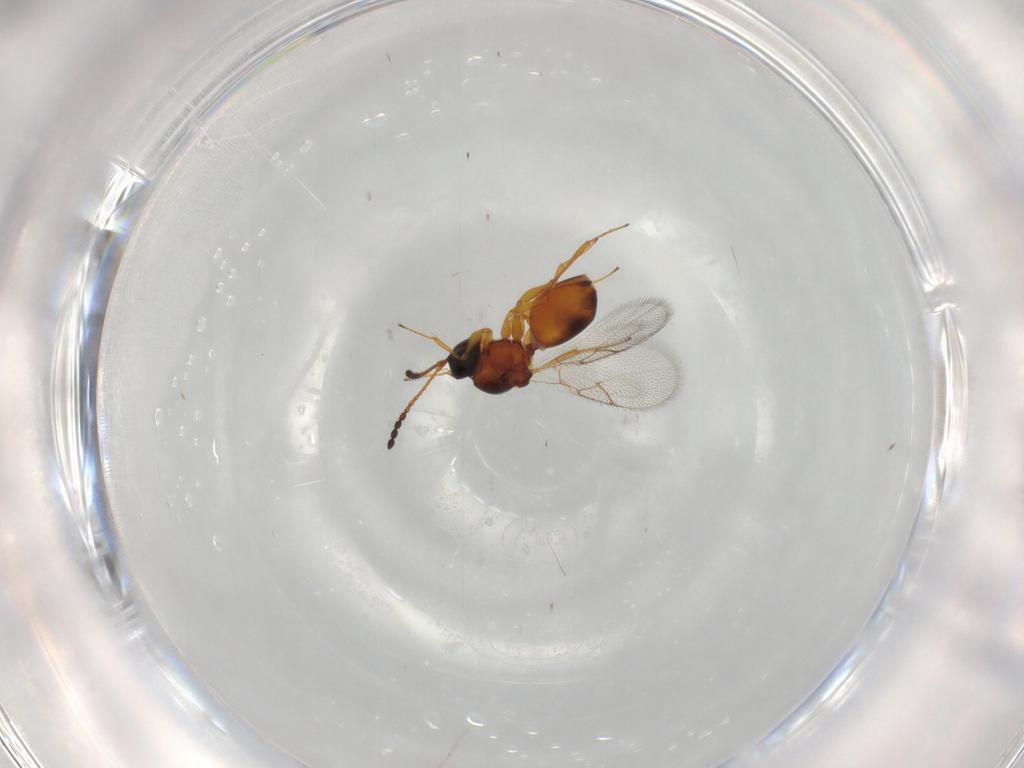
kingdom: Animalia
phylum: Arthropoda
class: Insecta
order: Hymenoptera
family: Figitidae
